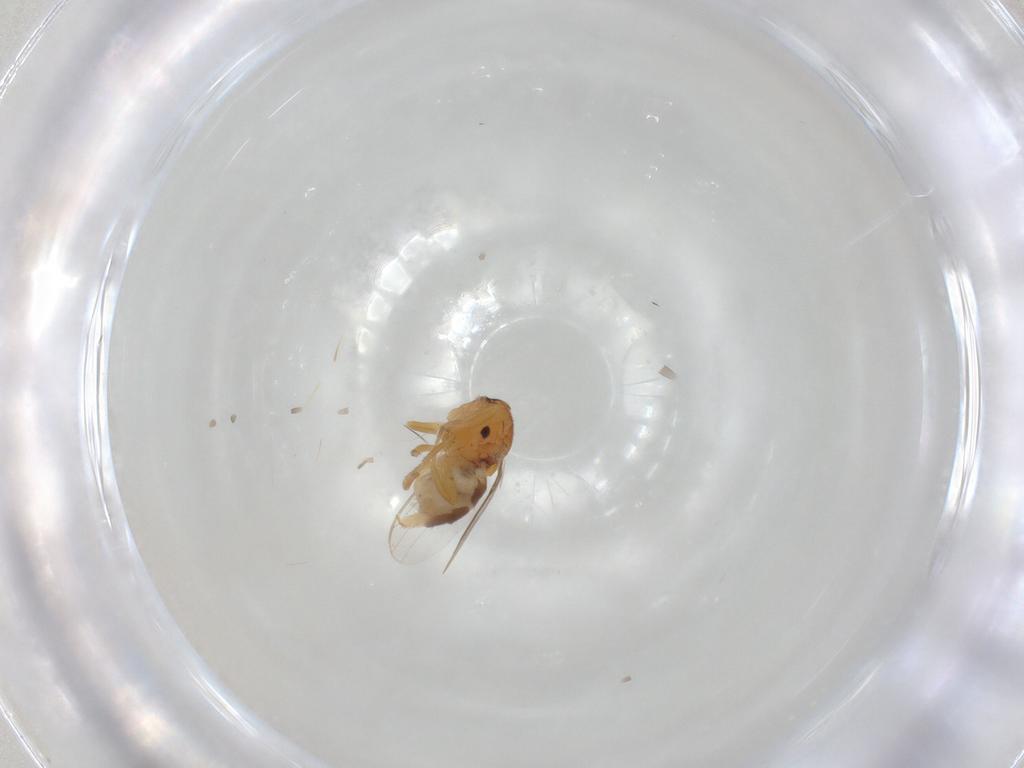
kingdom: Animalia
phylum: Arthropoda
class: Insecta
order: Diptera
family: Chloropidae
